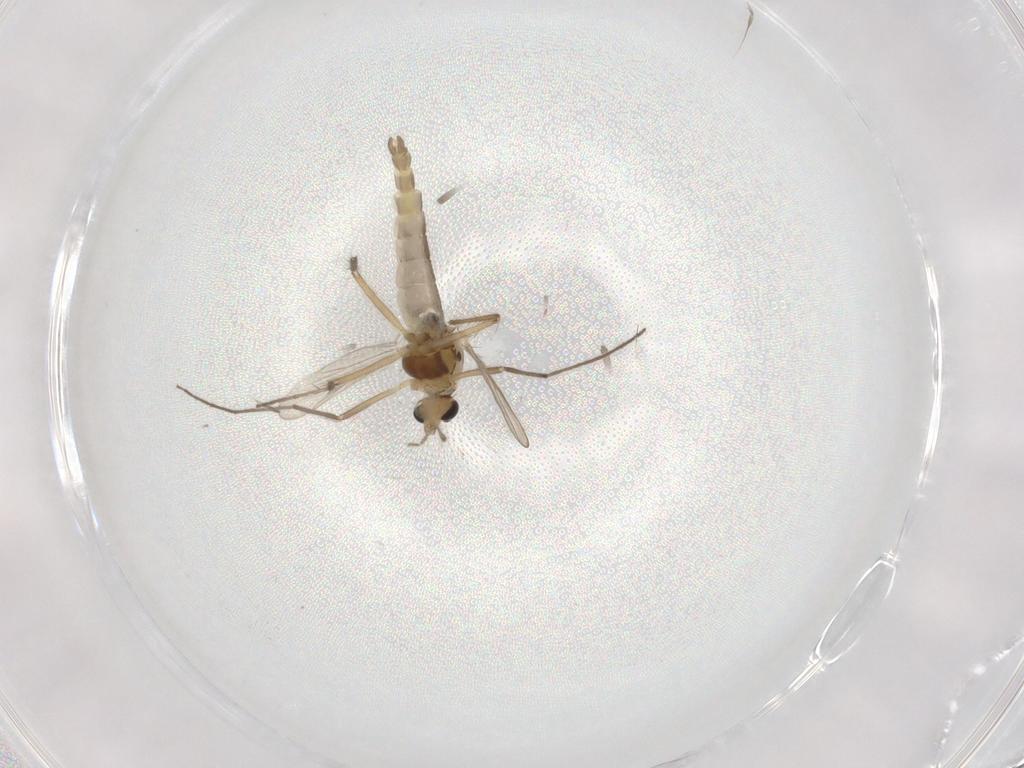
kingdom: Animalia
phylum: Arthropoda
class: Insecta
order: Diptera
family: Chironomidae
